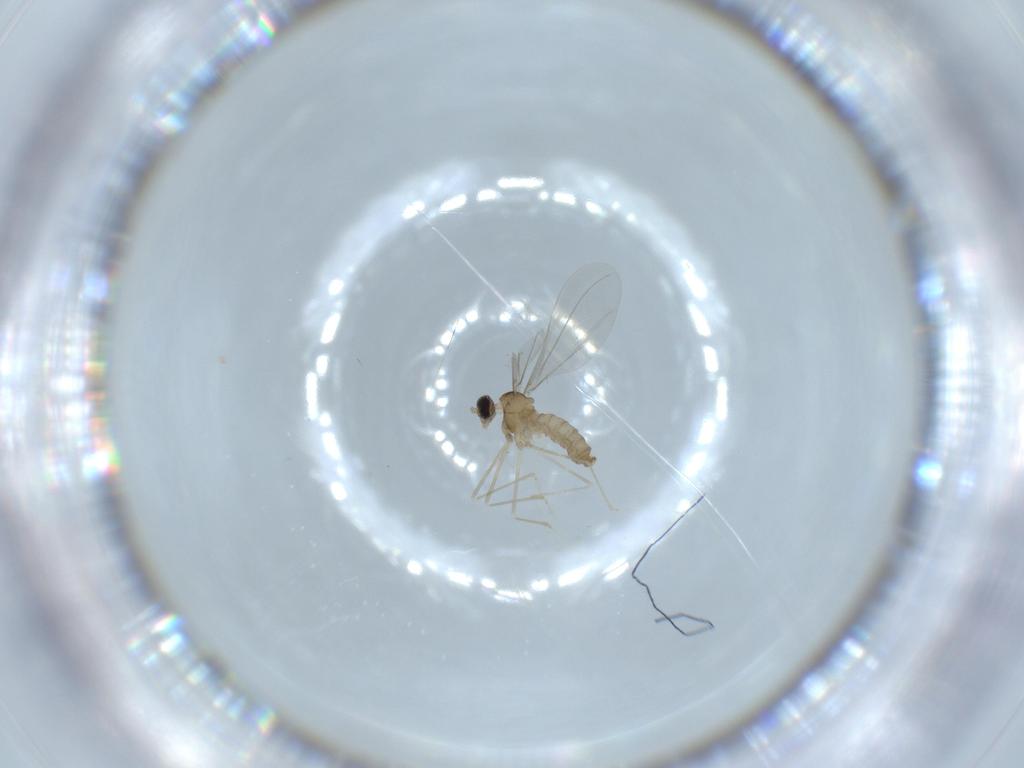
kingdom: Animalia
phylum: Arthropoda
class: Insecta
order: Diptera
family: Cecidomyiidae
